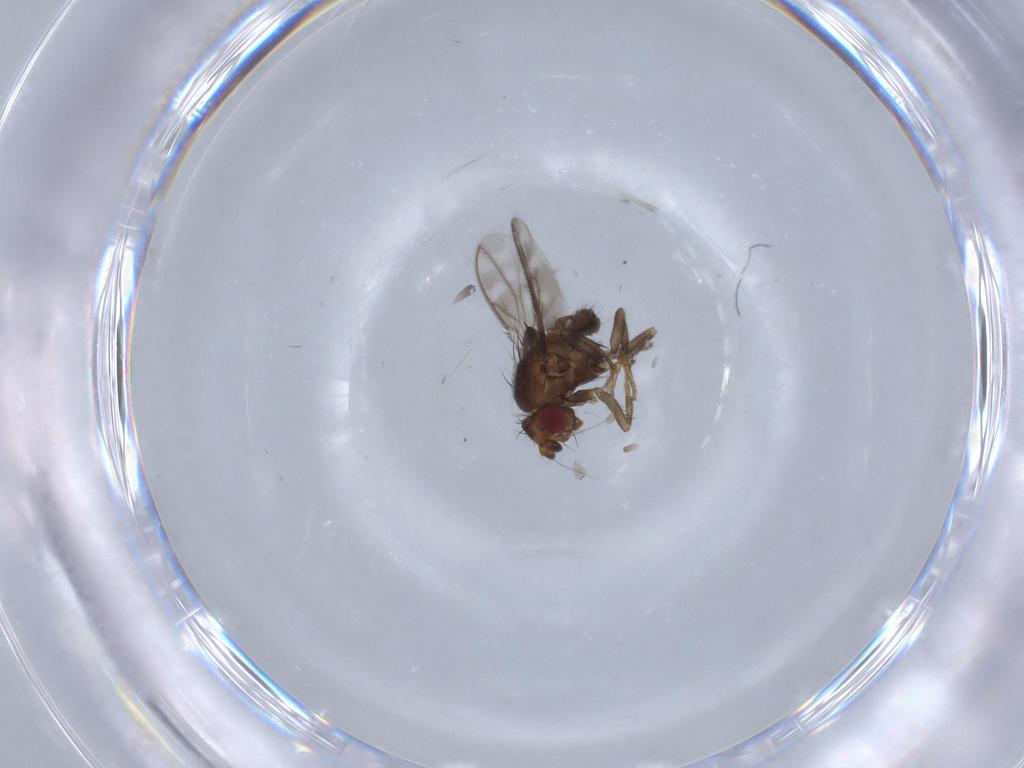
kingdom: Animalia
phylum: Arthropoda
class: Insecta
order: Diptera
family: Sphaeroceridae
